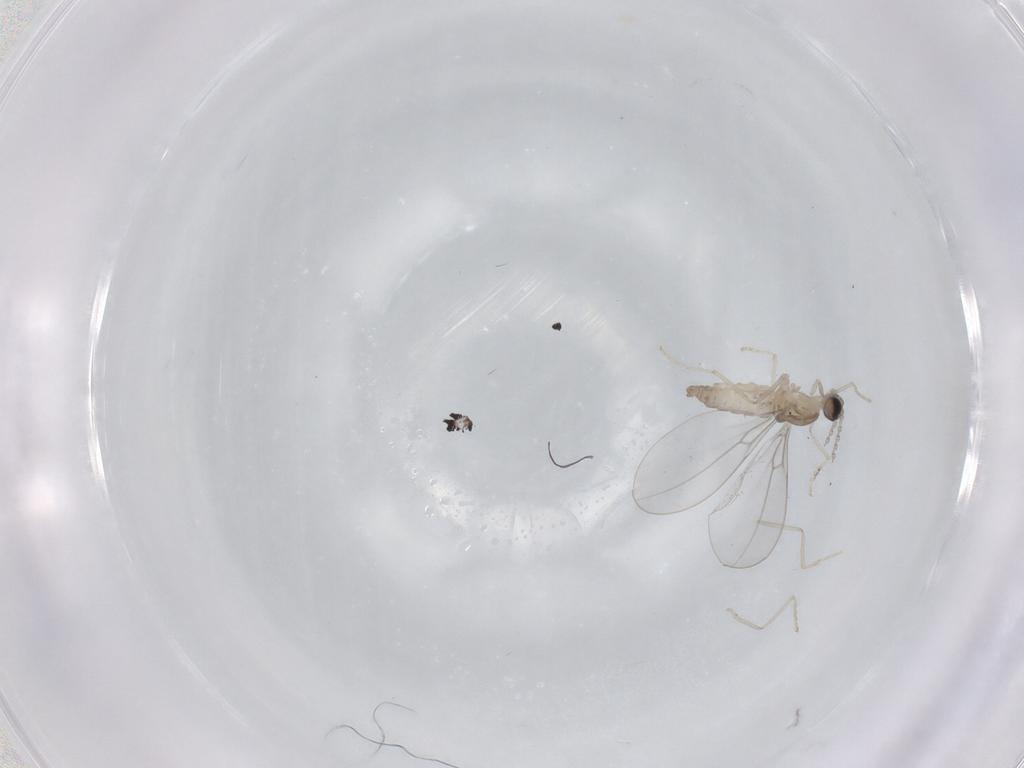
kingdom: Animalia
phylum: Arthropoda
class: Insecta
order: Diptera
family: Cecidomyiidae
